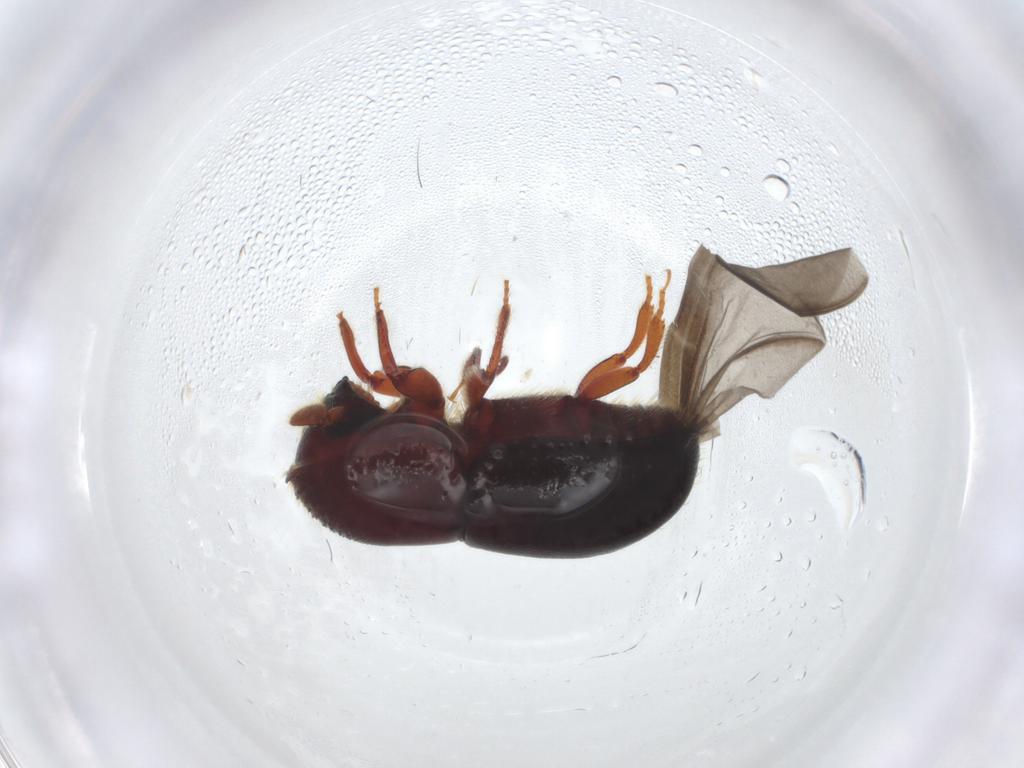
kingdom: Animalia
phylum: Arthropoda
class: Insecta
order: Coleoptera
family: Curculionidae
